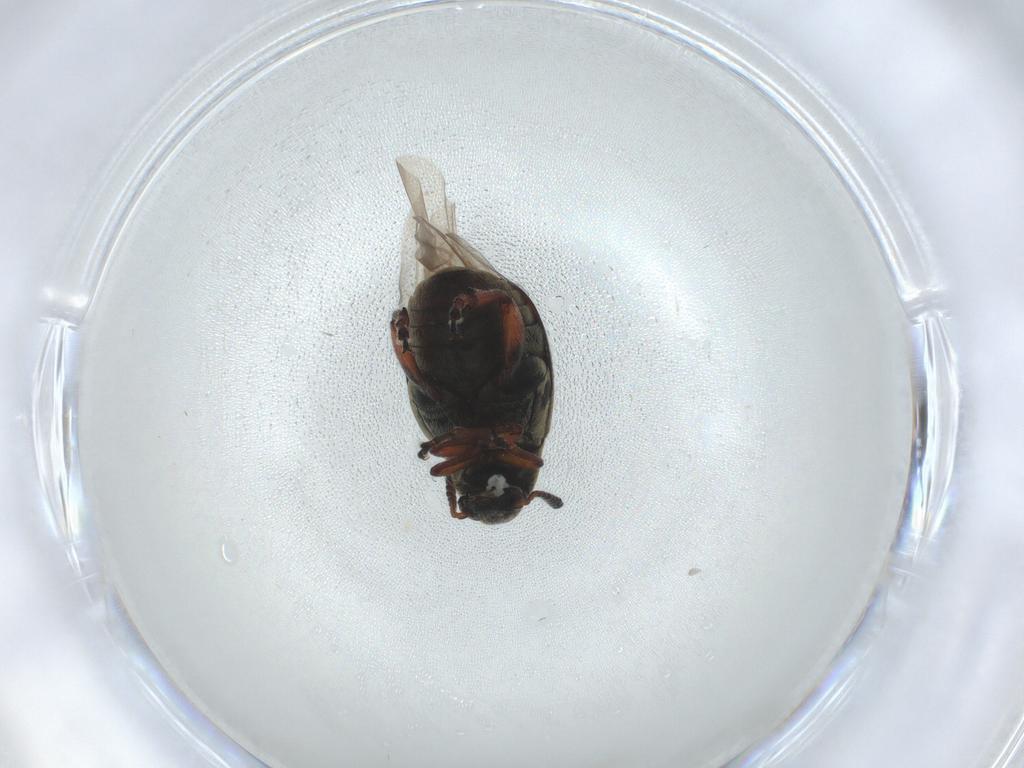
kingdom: Animalia
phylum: Arthropoda
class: Insecta
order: Coleoptera
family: Chrysomelidae
